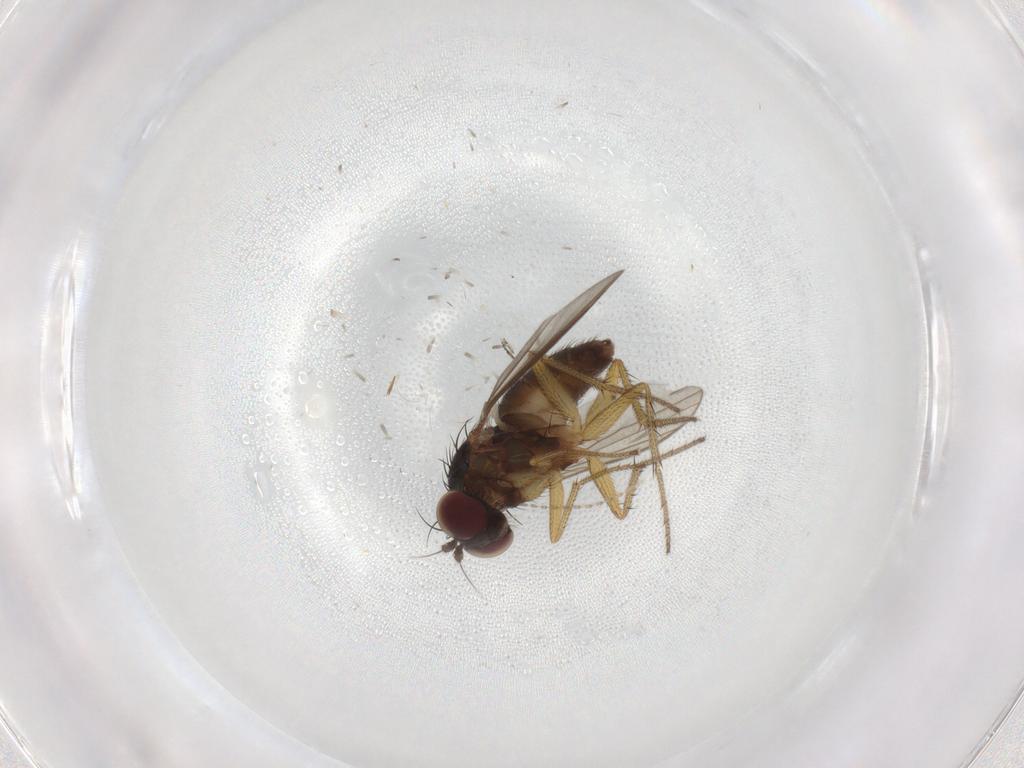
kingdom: Animalia
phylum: Arthropoda
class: Insecta
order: Diptera
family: Dolichopodidae
